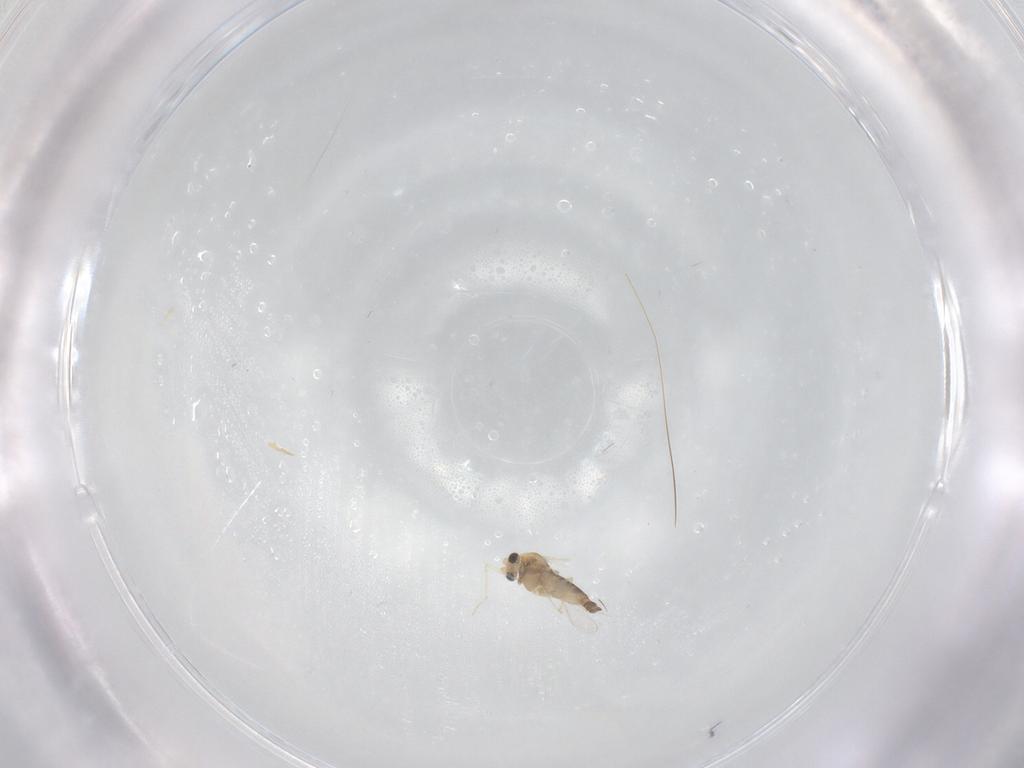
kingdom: Animalia
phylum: Arthropoda
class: Insecta
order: Diptera
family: Chironomidae
